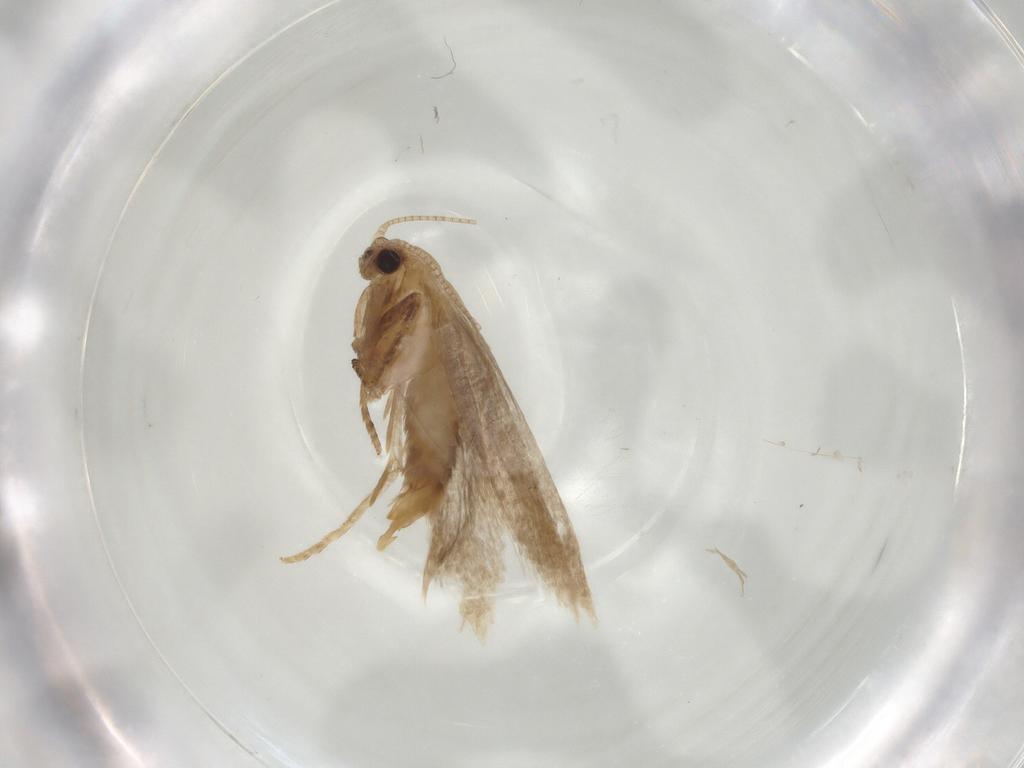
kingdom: Animalia
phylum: Arthropoda
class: Insecta
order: Lepidoptera
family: Nepticulidae
